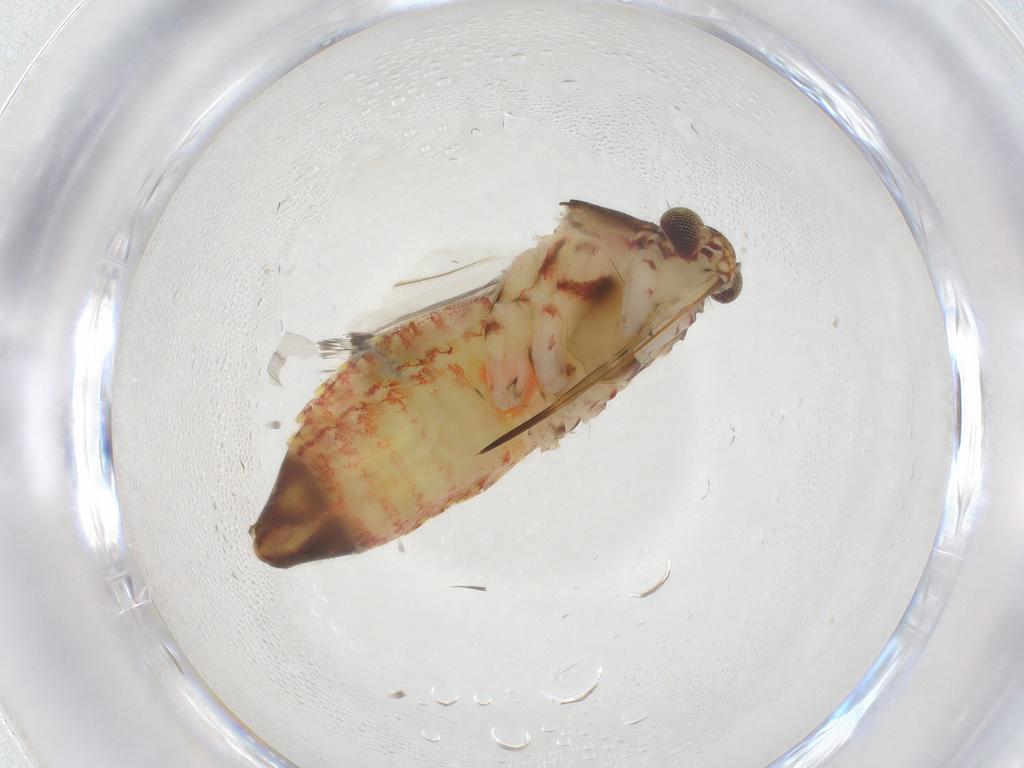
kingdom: Animalia
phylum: Arthropoda
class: Insecta
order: Hemiptera
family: Miridae
